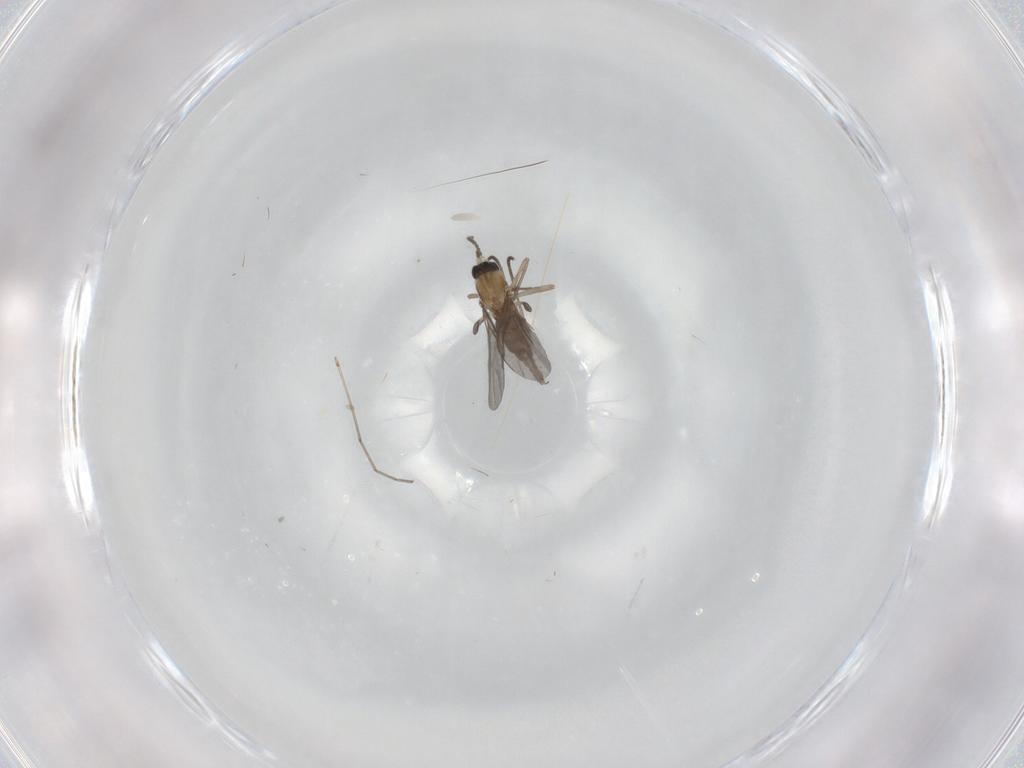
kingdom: Animalia
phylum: Arthropoda
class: Insecta
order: Diptera
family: Cecidomyiidae
